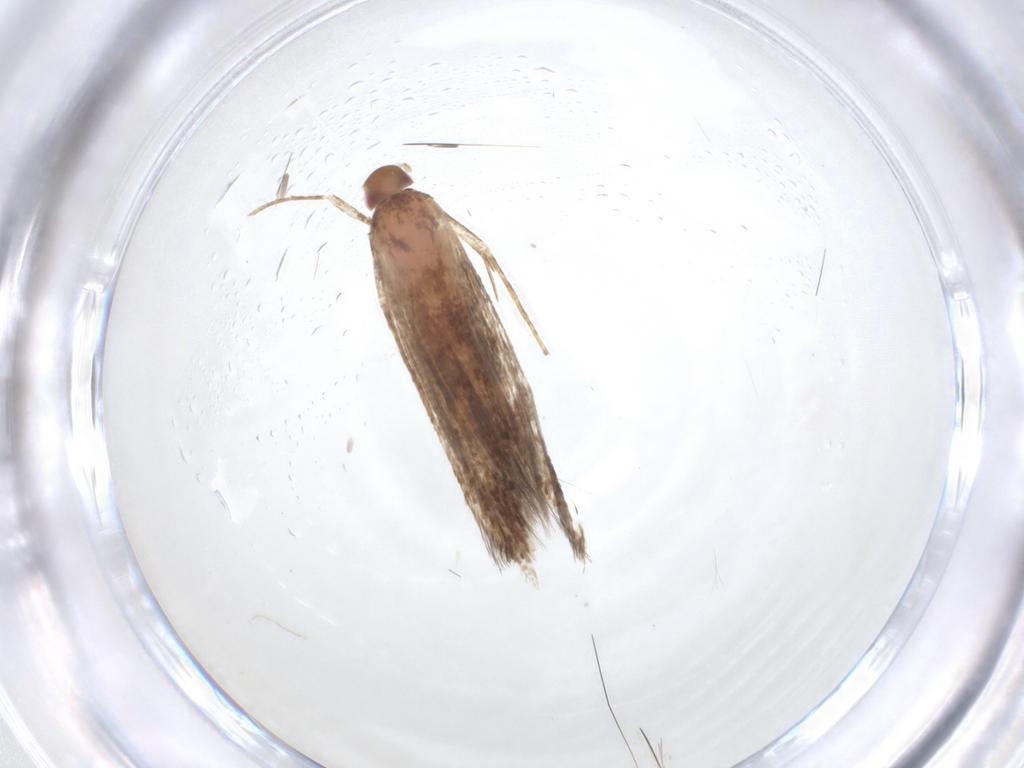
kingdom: Animalia
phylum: Arthropoda
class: Insecta
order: Lepidoptera
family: Cosmopterigidae
